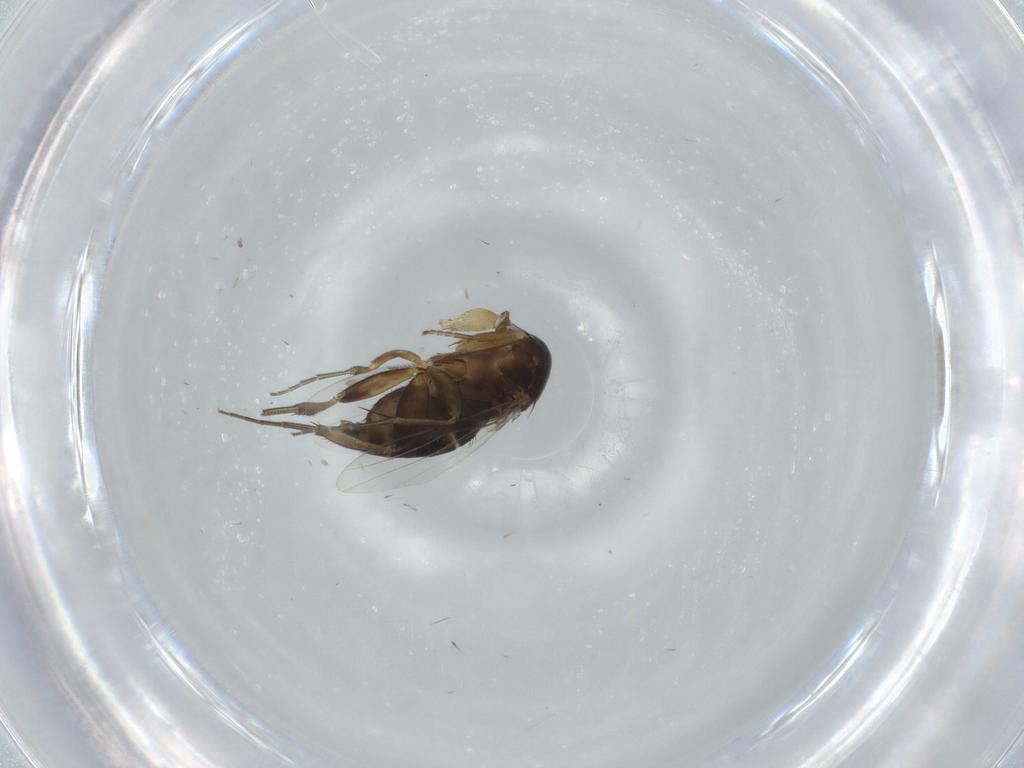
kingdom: Animalia
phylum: Arthropoda
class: Insecta
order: Diptera
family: Phoridae
